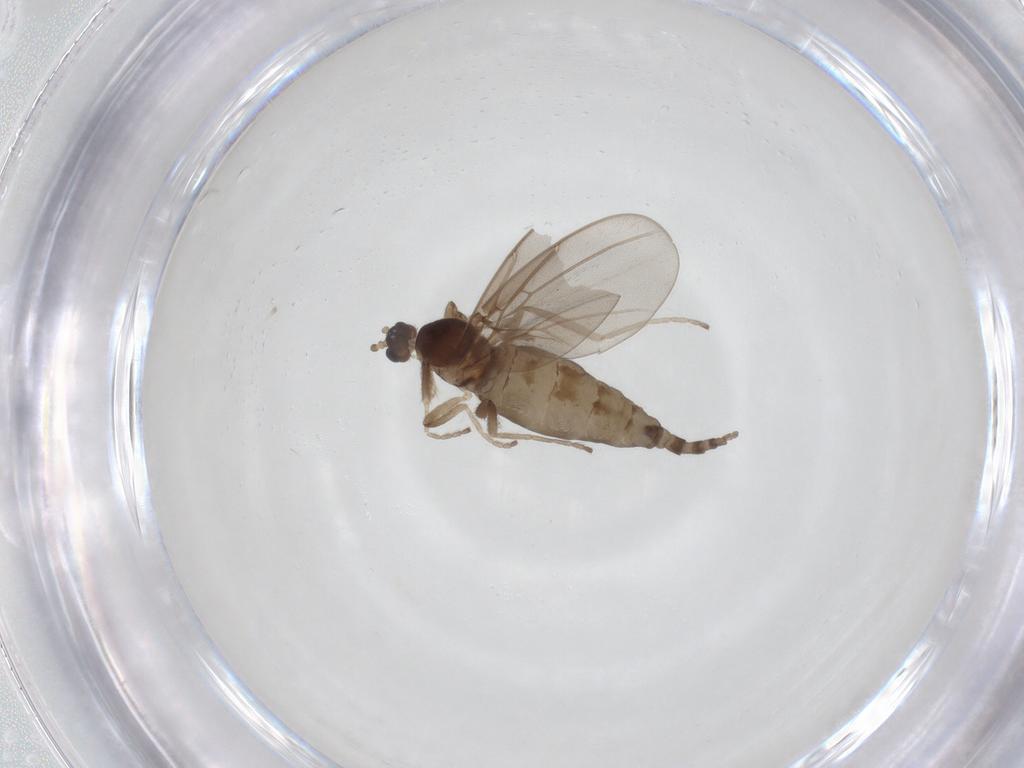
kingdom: Animalia
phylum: Arthropoda
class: Insecta
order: Diptera
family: Cecidomyiidae
